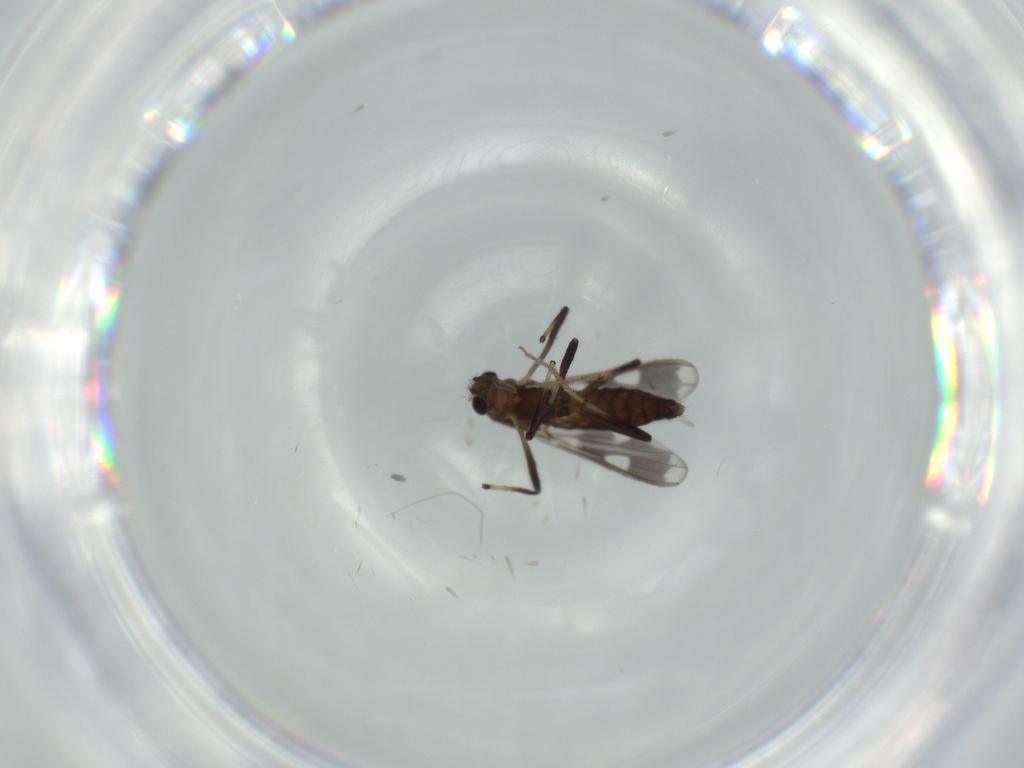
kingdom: Animalia
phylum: Arthropoda
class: Insecta
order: Diptera
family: Chironomidae
